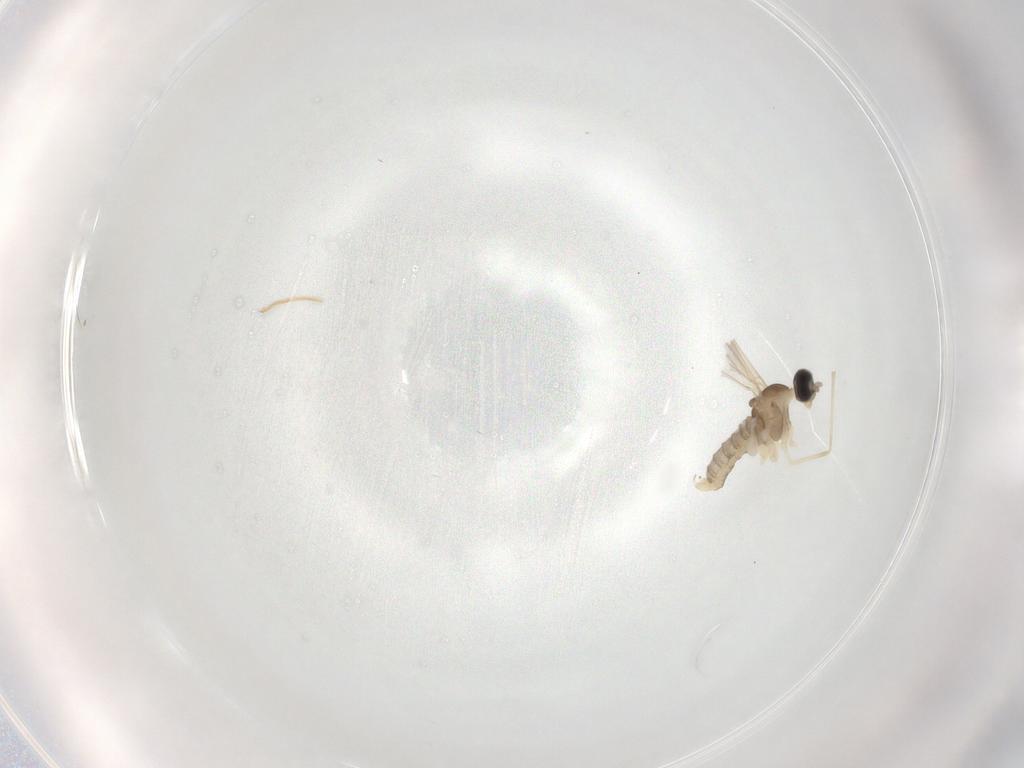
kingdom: Animalia
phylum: Arthropoda
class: Insecta
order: Diptera
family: Cecidomyiidae
